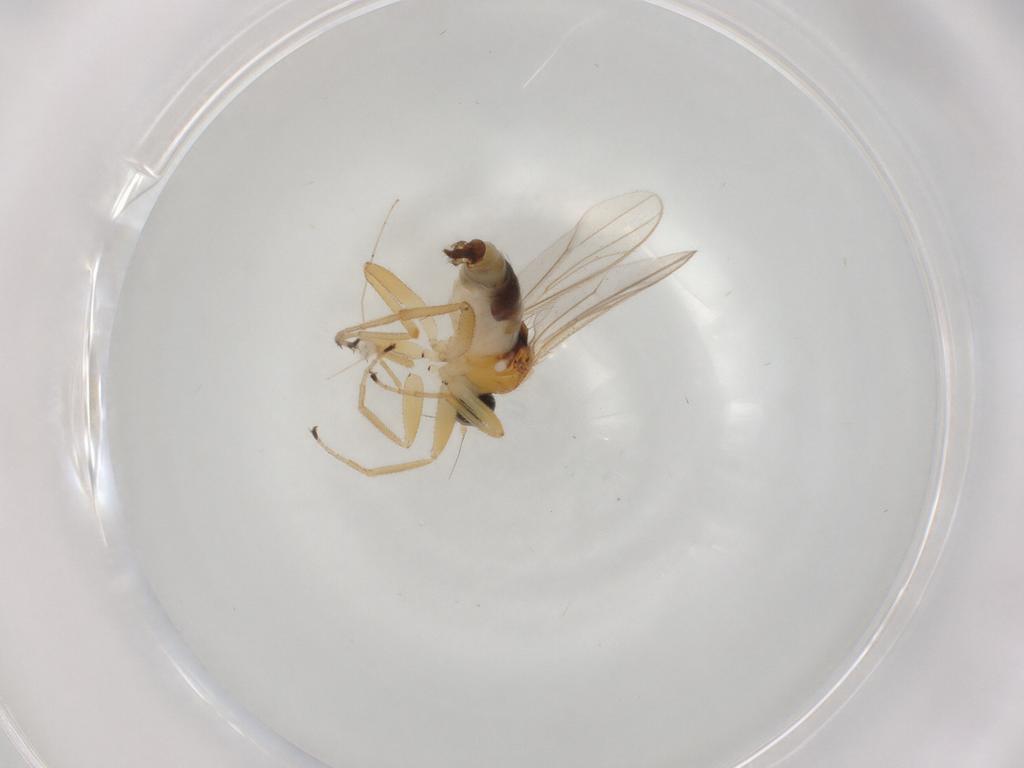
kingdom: Animalia
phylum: Arthropoda
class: Insecta
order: Diptera
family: Hybotidae
